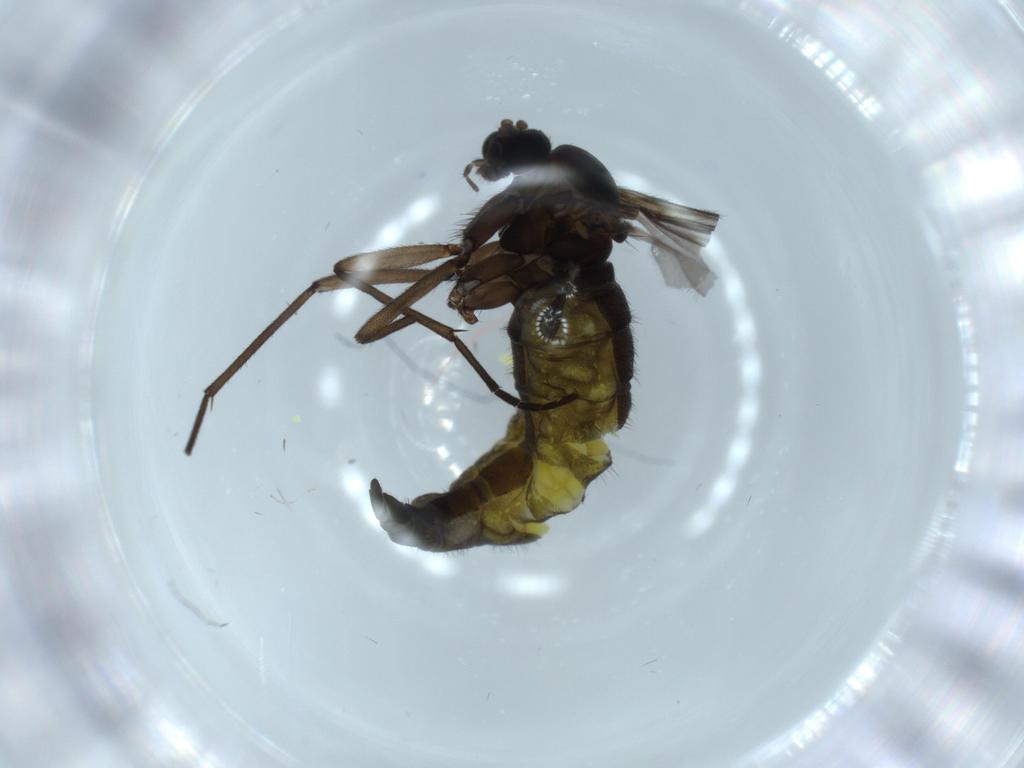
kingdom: Animalia
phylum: Arthropoda
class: Insecta
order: Diptera
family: Sciaridae
